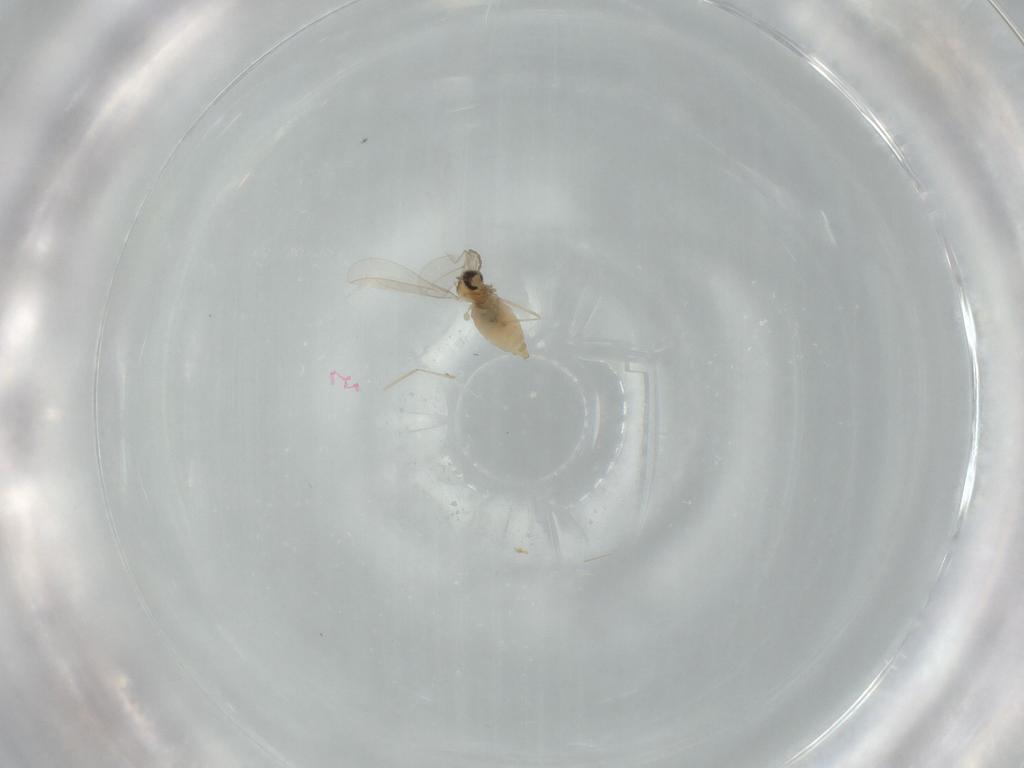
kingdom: Animalia
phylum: Arthropoda
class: Insecta
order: Diptera
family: Cecidomyiidae
